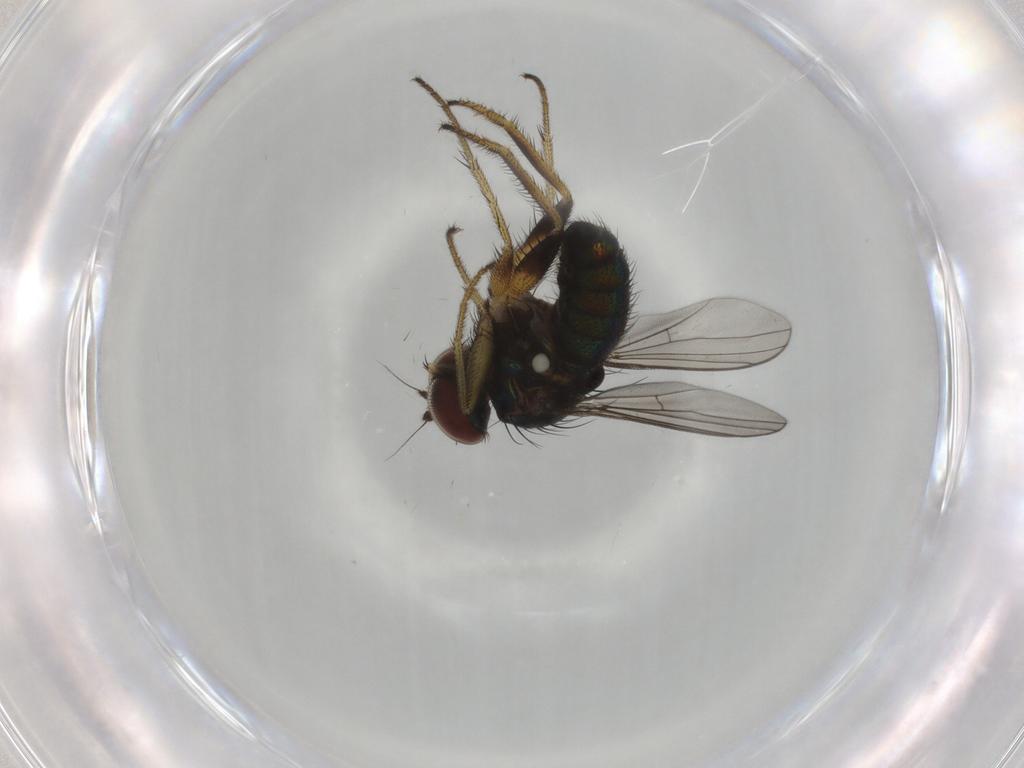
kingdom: Animalia
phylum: Arthropoda
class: Insecta
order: Diptera
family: Dolichopodidae
